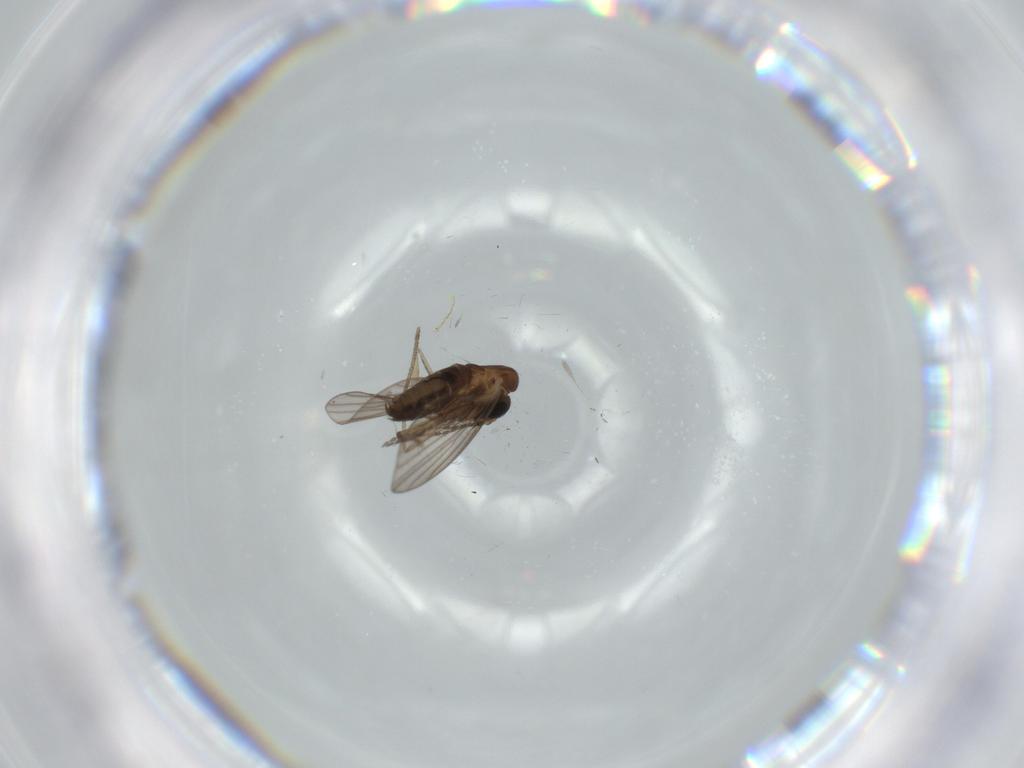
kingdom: Animalia
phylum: Arthropoda
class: Insecta
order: Diptera
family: Psychodidae
